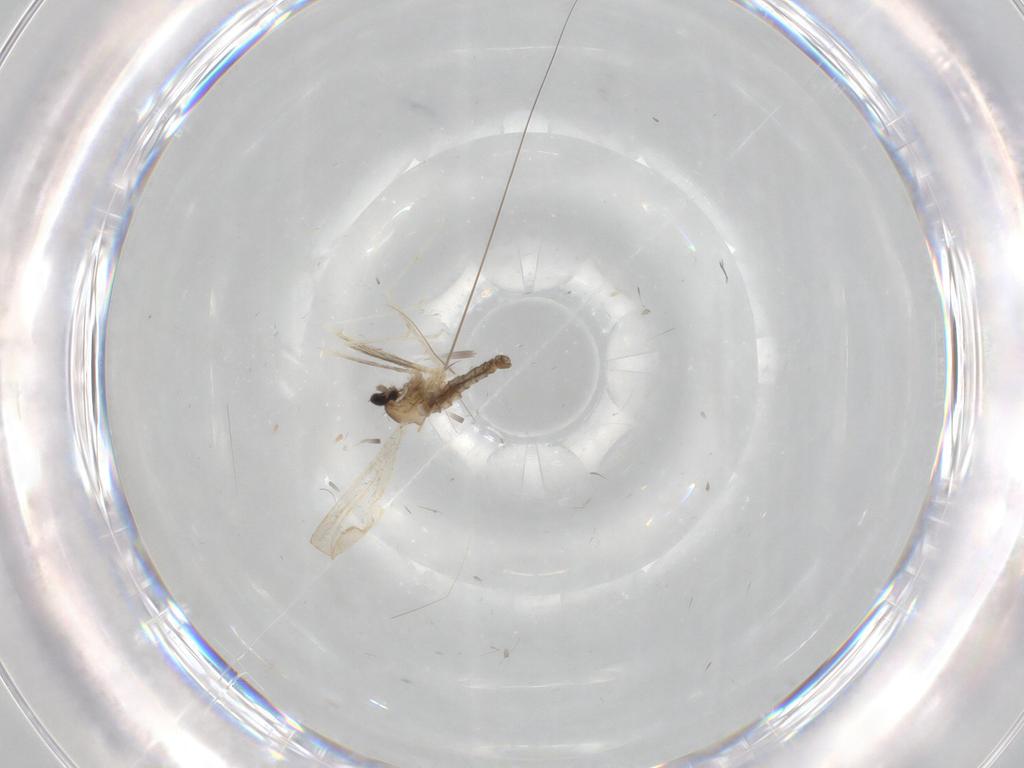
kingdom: Animalia
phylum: Arthropoda
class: Insecta
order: Diptera
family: Cecidomyiidae
